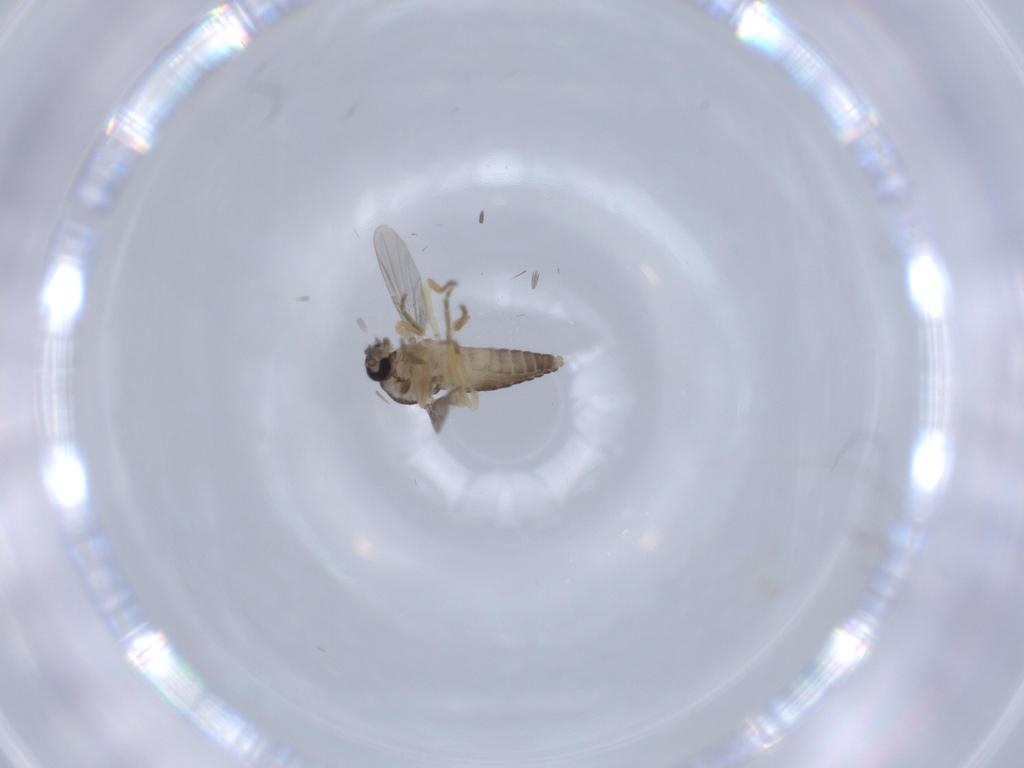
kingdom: Animalia
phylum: Arthropoda
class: Insecta
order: Diptera
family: Ceratopogonidae
